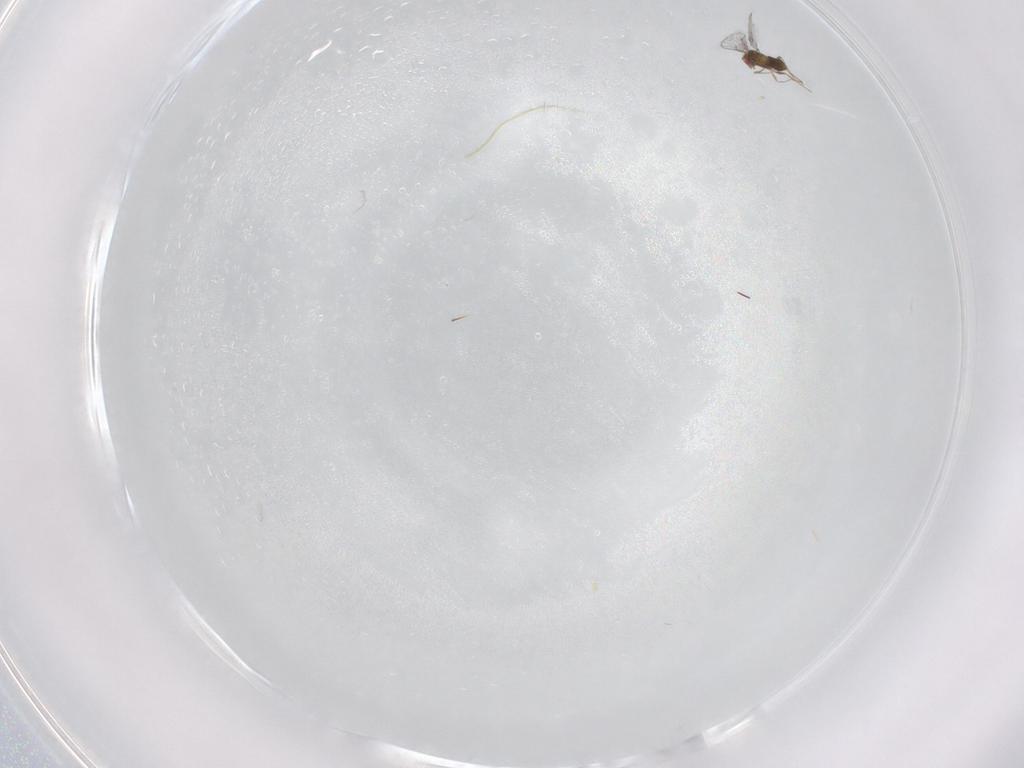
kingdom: Animalia
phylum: Arthropoda
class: Insecta
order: Hymenoptera
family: Trichogrammatidae
